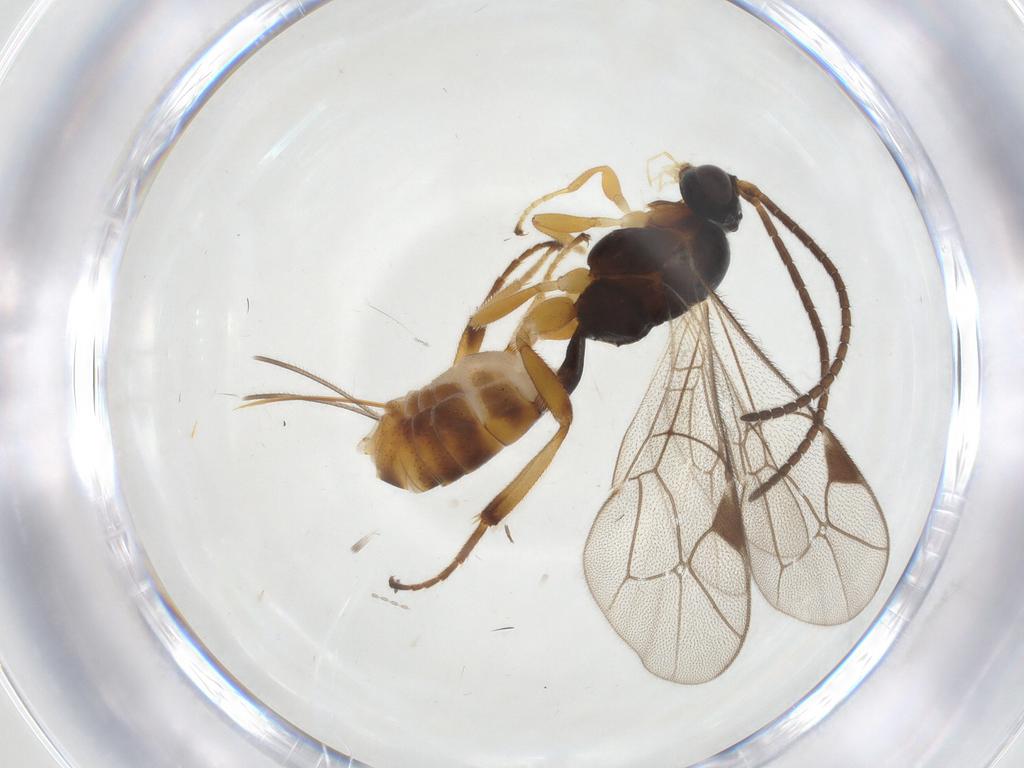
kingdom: Animalia
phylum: Arthropoda
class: Insecta
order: Hymenoptera
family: Ichneumonidae
